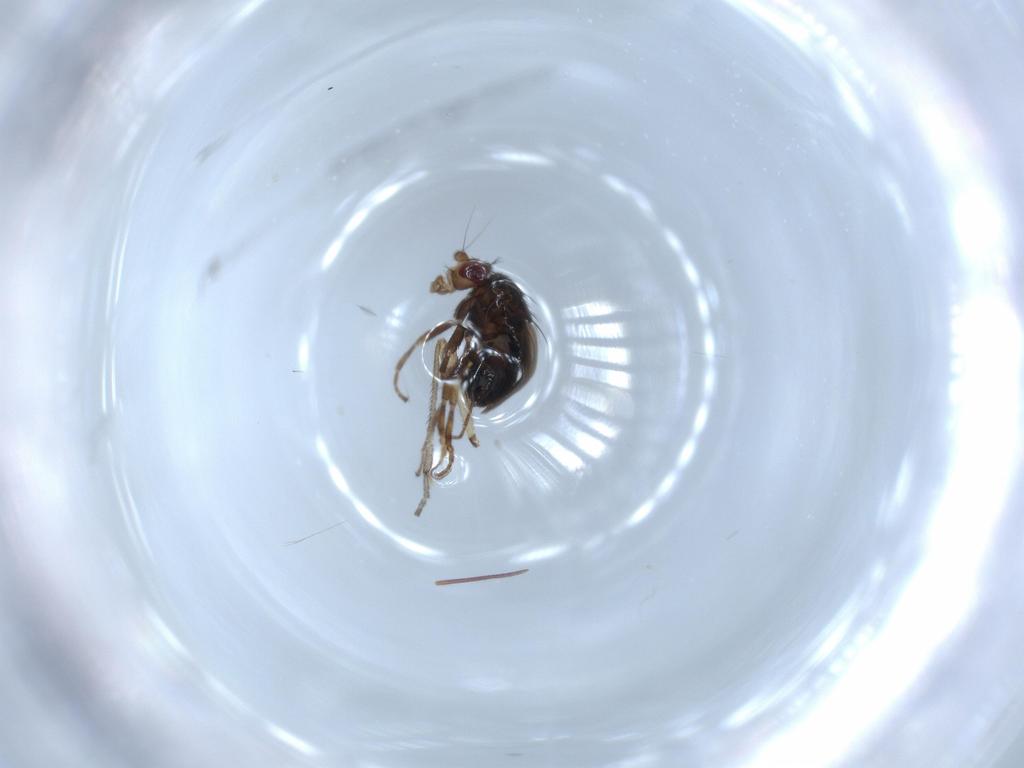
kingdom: Animalia
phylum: Arthropoda
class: Insecta
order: Diptera
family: Sphaeroceridae
